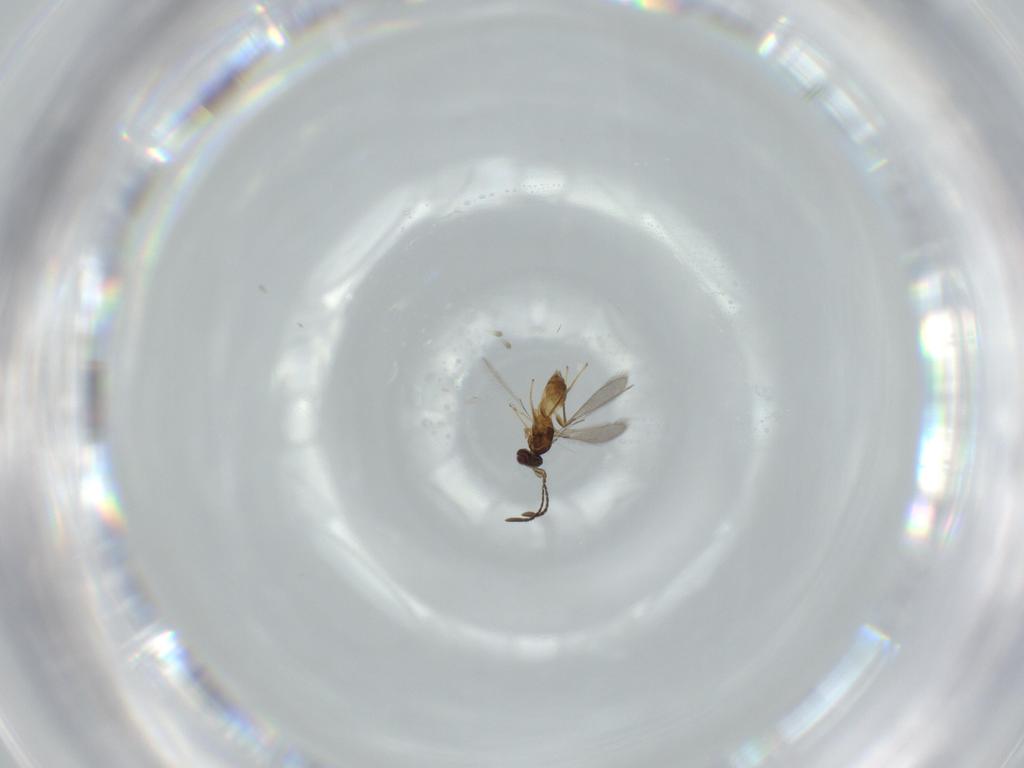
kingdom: Animalia
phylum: Arthropoda
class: Insecta
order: Hymenoptera
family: Mymaridae
